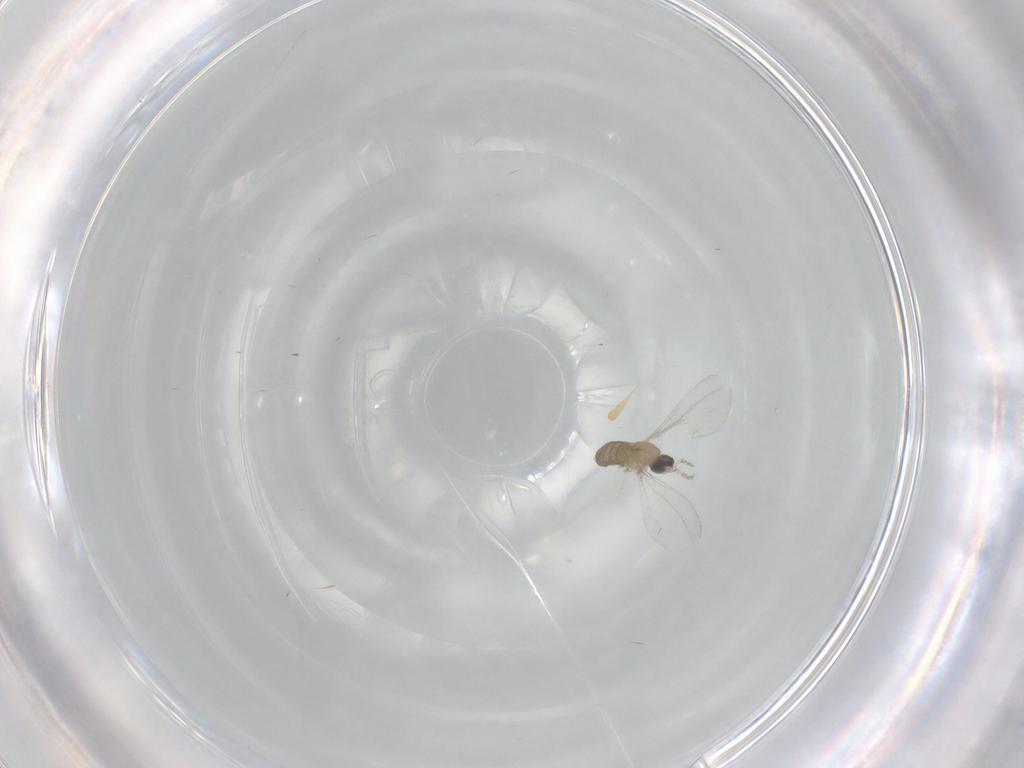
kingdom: Animalia
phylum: Arthropoda
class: Insecta
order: Diptera
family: Cecidomyiidae
